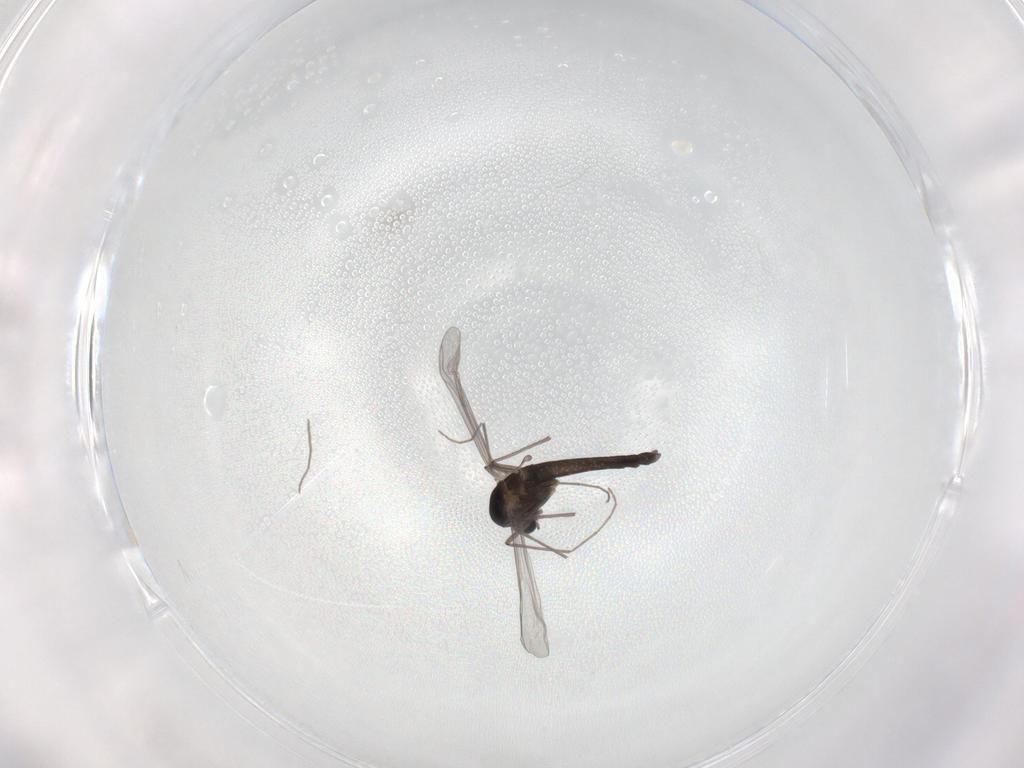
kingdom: Animalia
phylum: Arthropoda
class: Insecta
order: Diptera
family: Chironomidae
